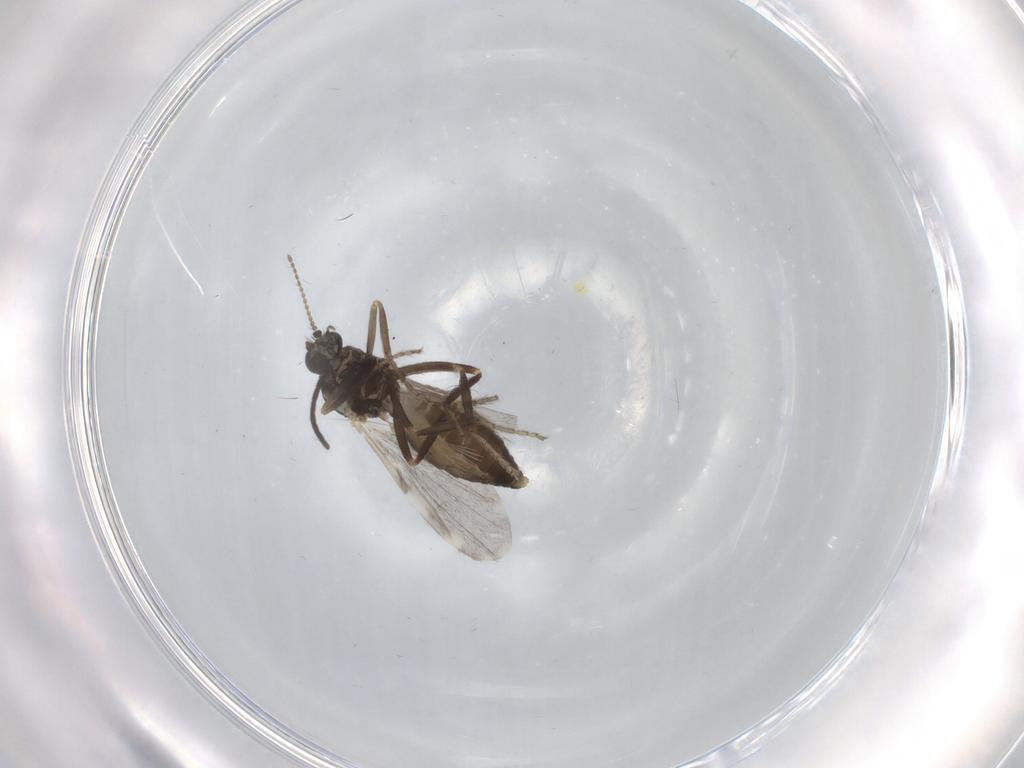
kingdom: Animalia
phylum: Arthropoda
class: Insecta
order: Diptera
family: Ceratopogonidae
